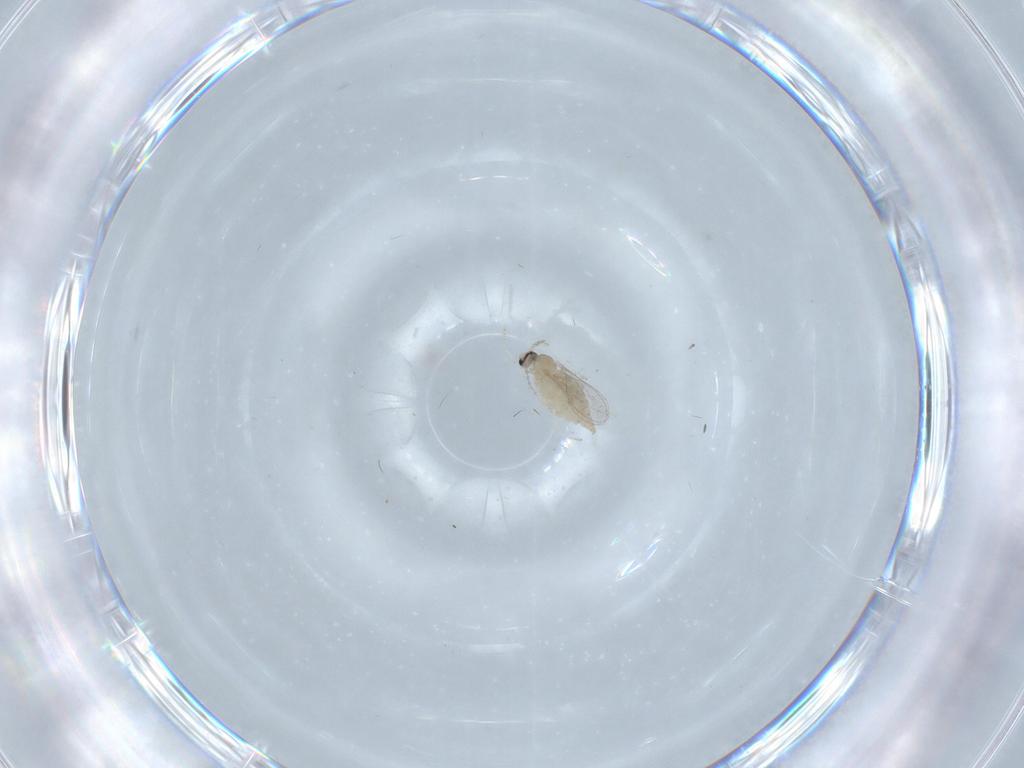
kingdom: Animalia
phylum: Arthropoda
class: Insecta
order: Diptera
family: Cecidomyiidae
